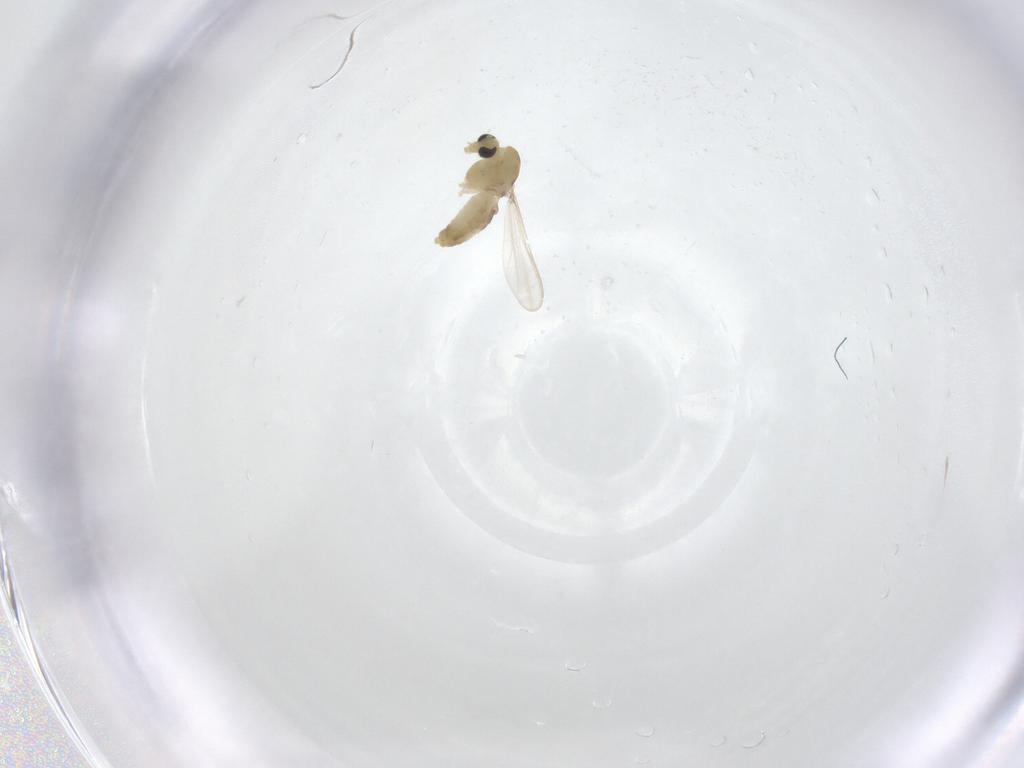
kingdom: Animalia
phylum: Arthropoda
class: Insecta
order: Diptera
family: Chironomidae
